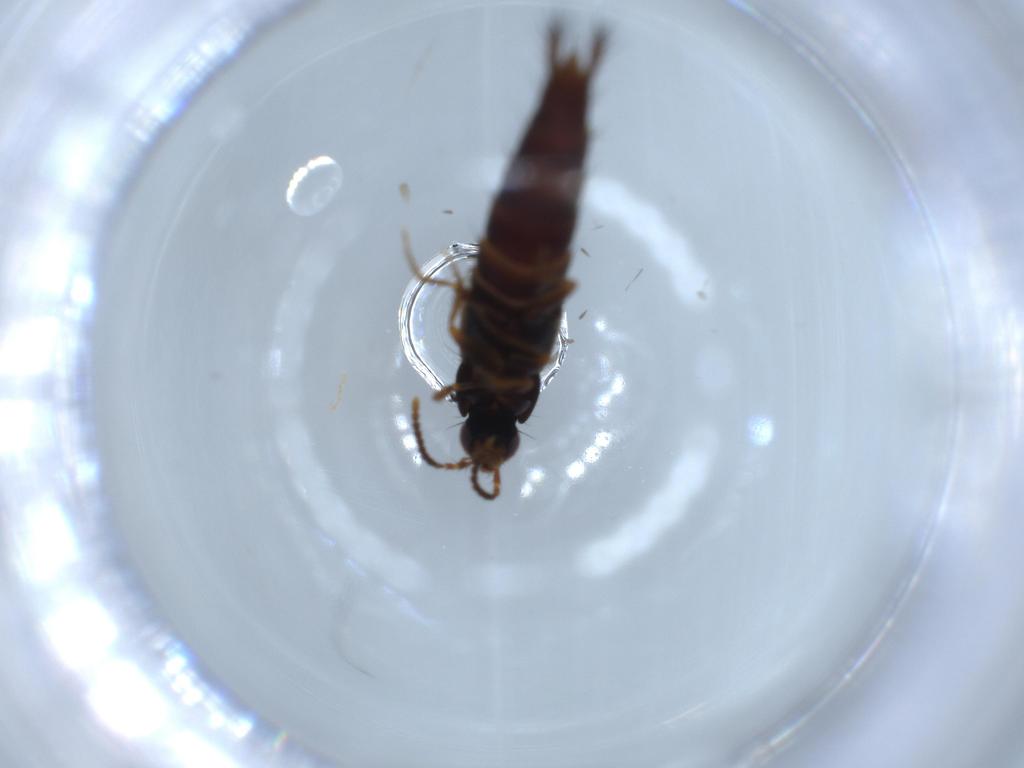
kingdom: Animalia
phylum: Arthropoda
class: Insecta
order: Coleoptera
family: Staphylinidae
